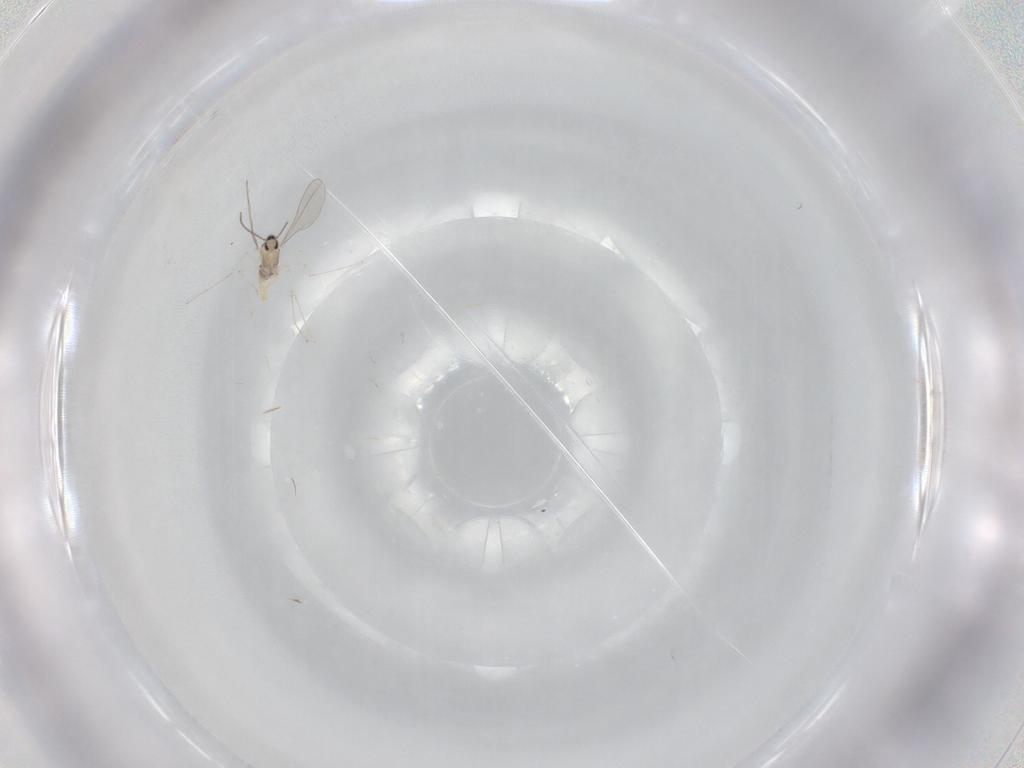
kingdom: Animalia
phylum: Arthropoda
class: Insecta
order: Diptera
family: Cecidomyiidae
